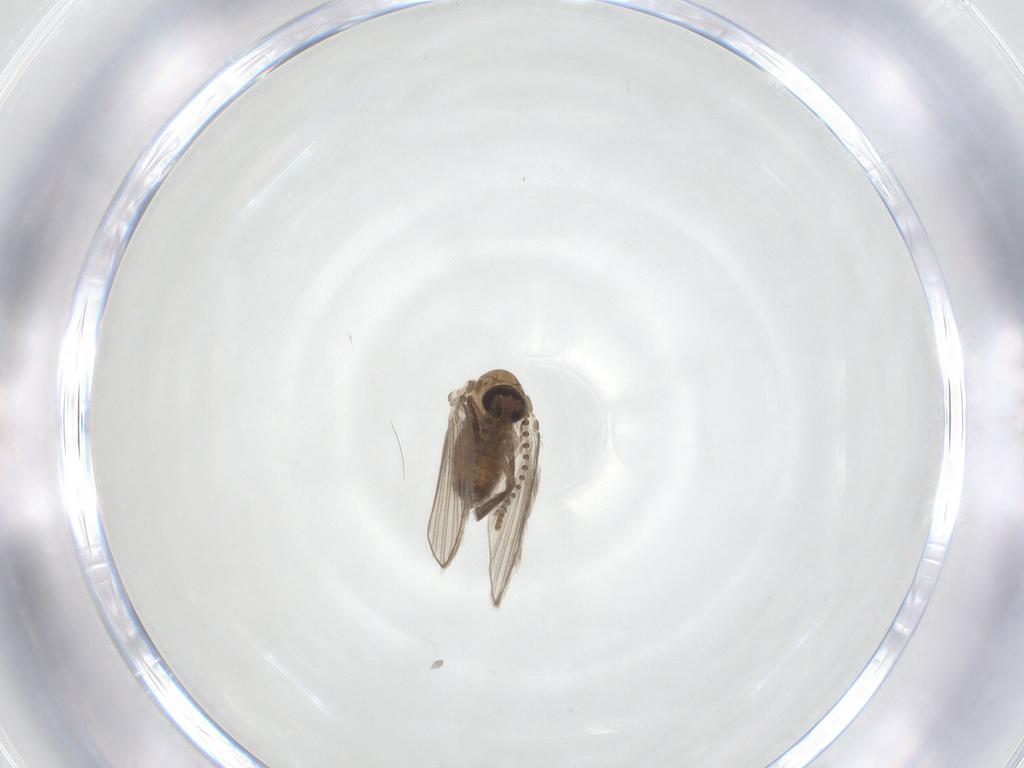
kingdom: Animalia
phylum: Arthropoda
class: Insecta
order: Diptera
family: Psychodidae
